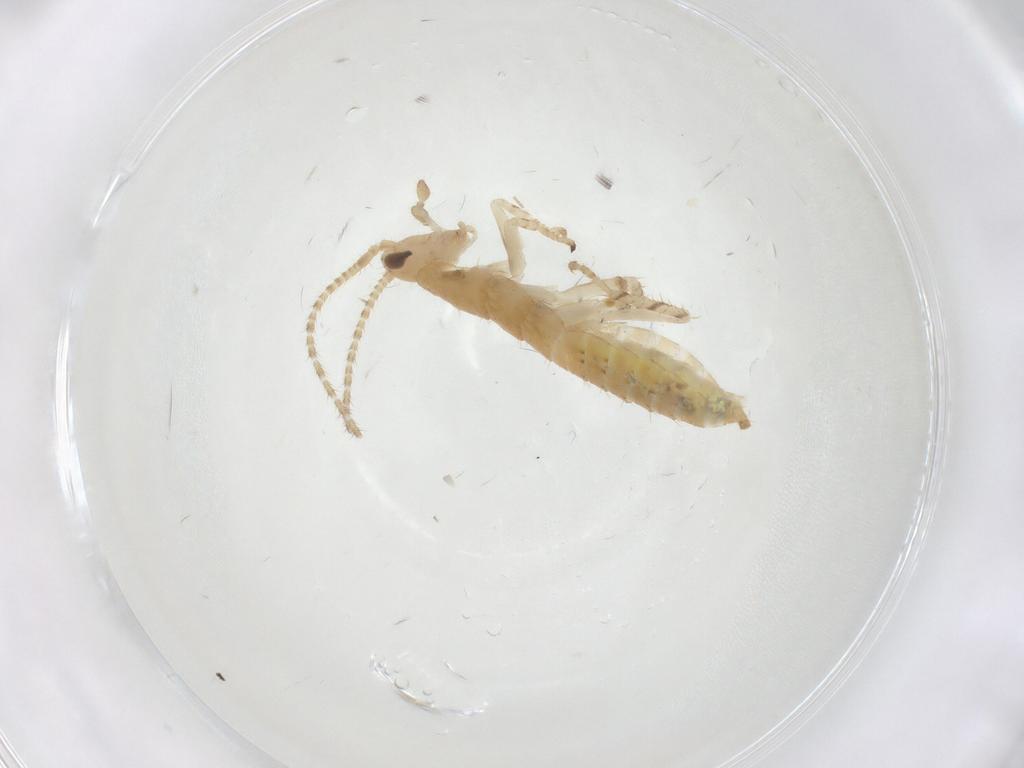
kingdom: Animalia
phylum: Arthropoda
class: Insecta
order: Blattodea
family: Ectobiidae
